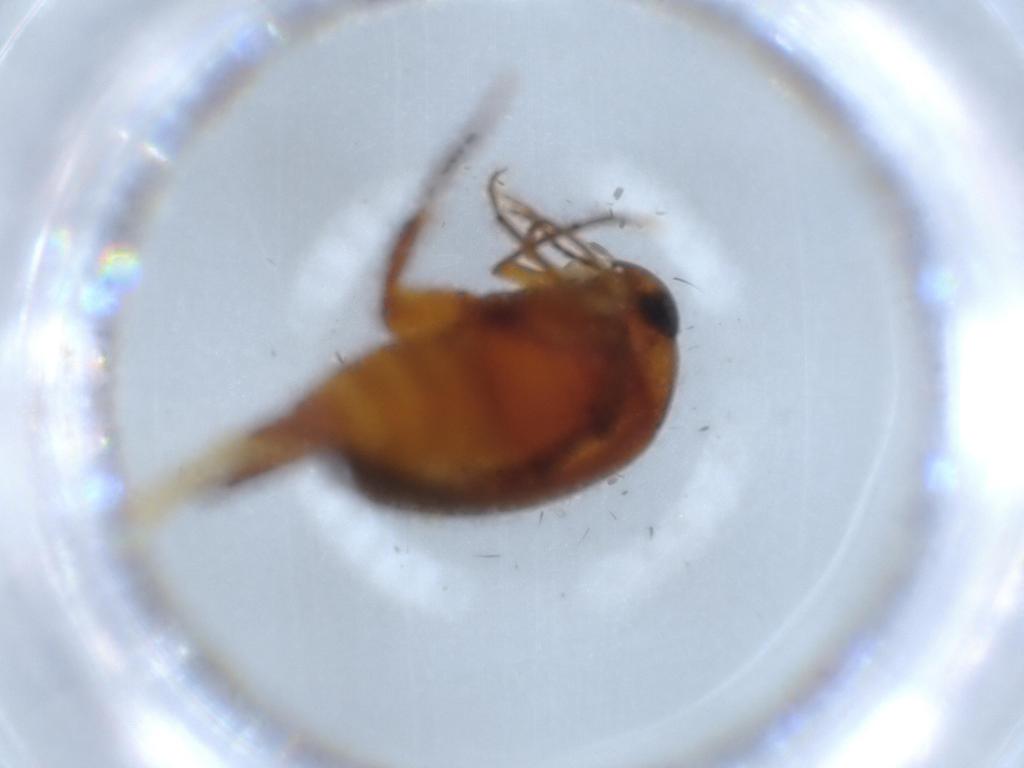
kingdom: Animalia
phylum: Arthropoda
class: Insecta
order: Coleoptera
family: Mordellidae
